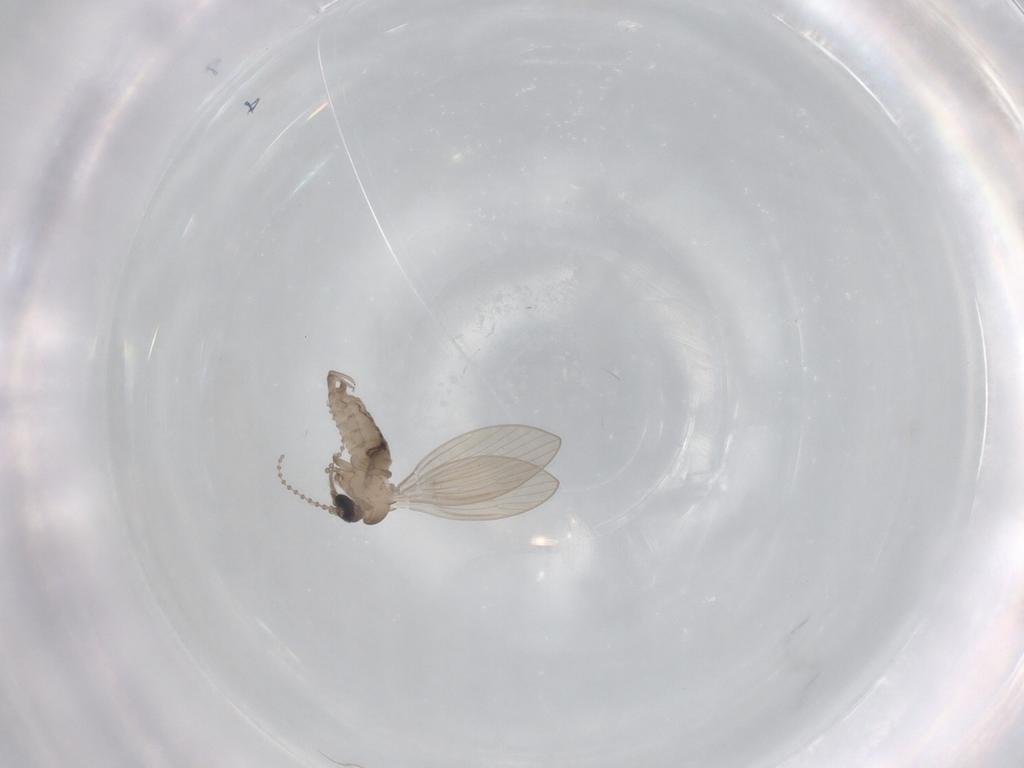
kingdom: Animalia
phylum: Arthropoda
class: Insecta
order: Diptera
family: Psychodidae
